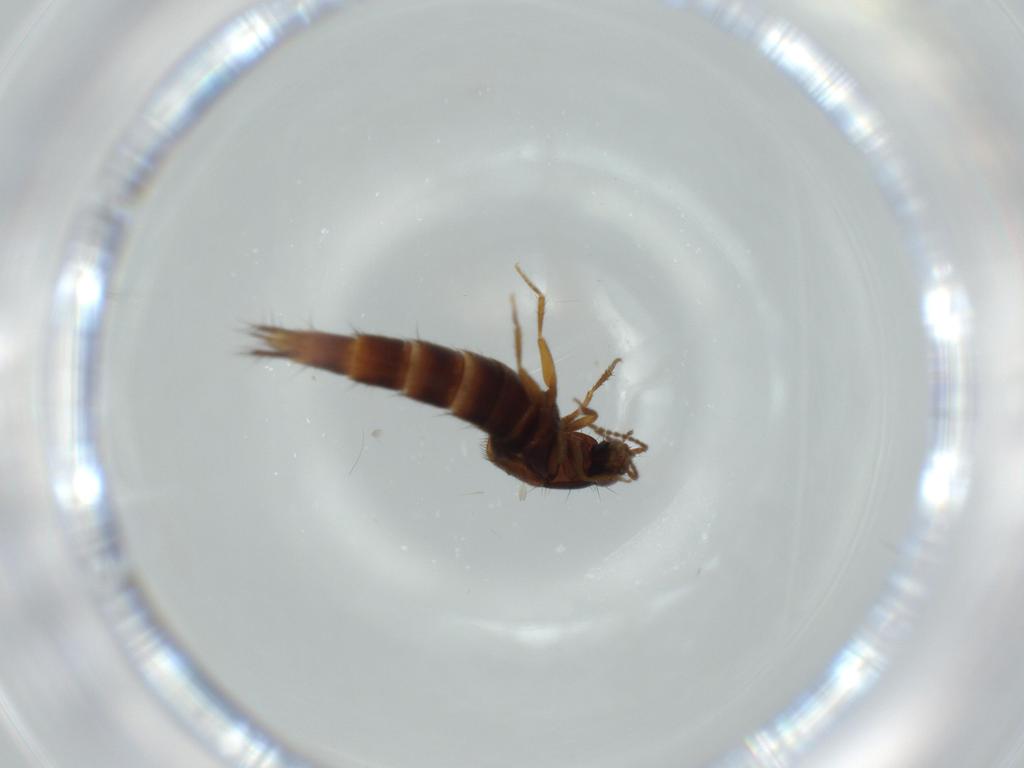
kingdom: Animalia
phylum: Arthropoda
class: Insecta
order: Coleoptera
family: Staphylinidae
